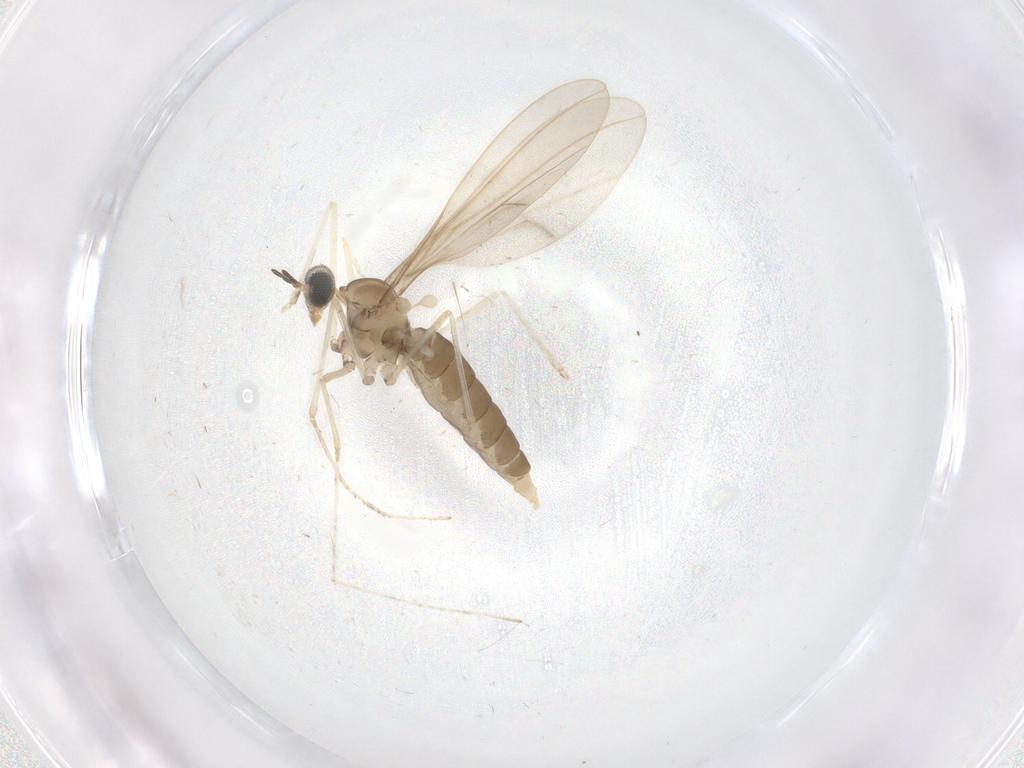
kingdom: Animalia
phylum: Arthropoda
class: Insecta
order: Diptera
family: Cecidomyiidae
